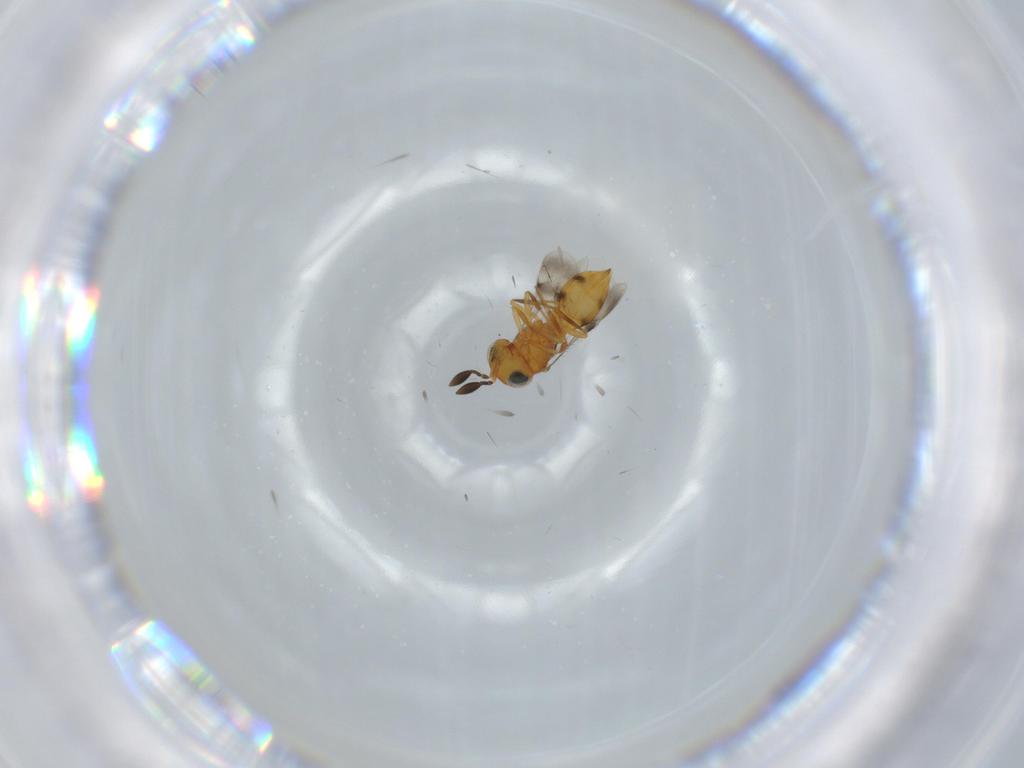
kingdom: Animalia
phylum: Arthropoda
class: Insecta
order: Hymenoptera
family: Scelionidae
